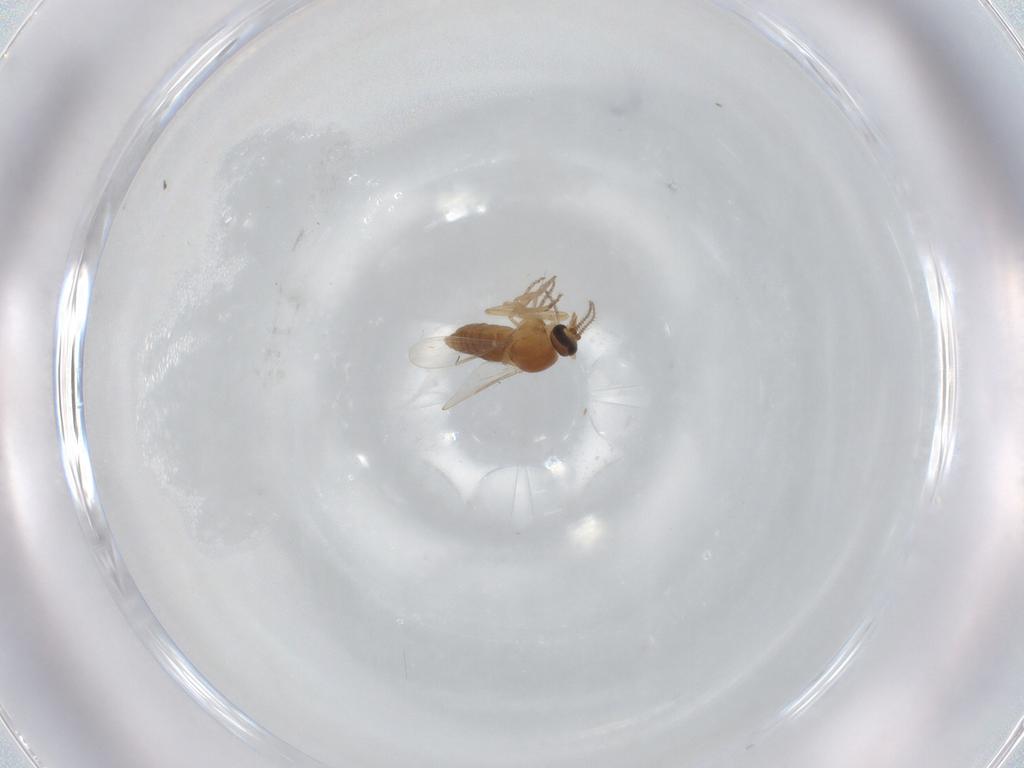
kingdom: Animalia
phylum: Arthropoda
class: Insecta
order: Diptera
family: Ceratopogonidae
